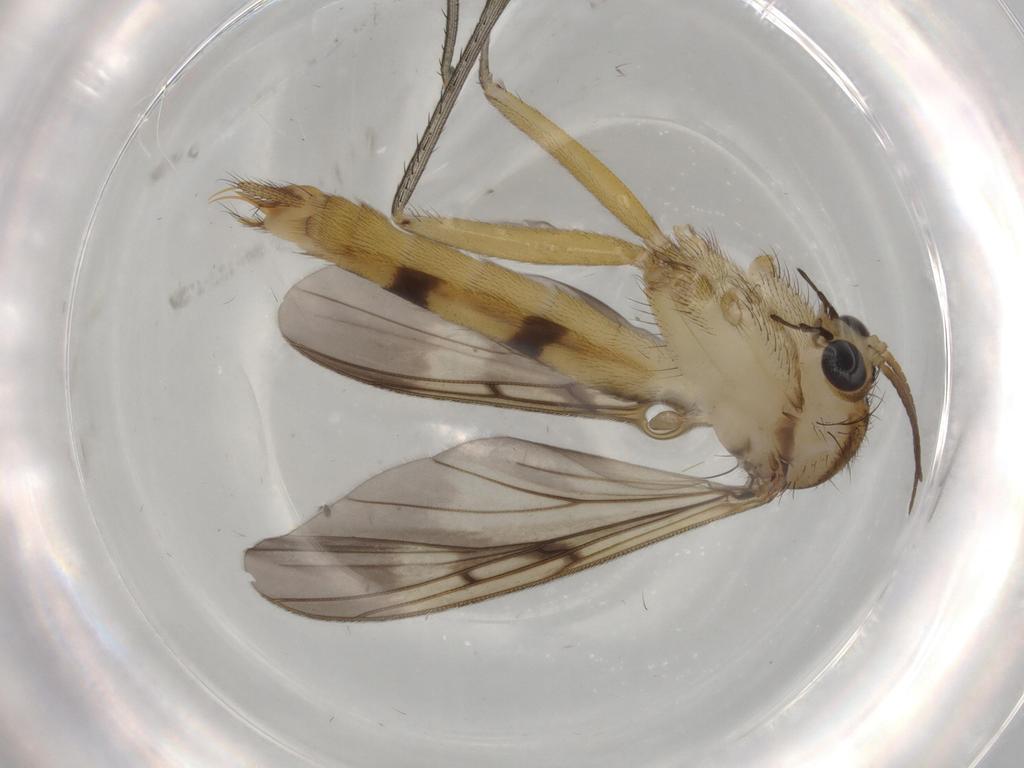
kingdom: Animalia
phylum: Arthropoda
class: Insecta
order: Diptera
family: Mycetophilidae
